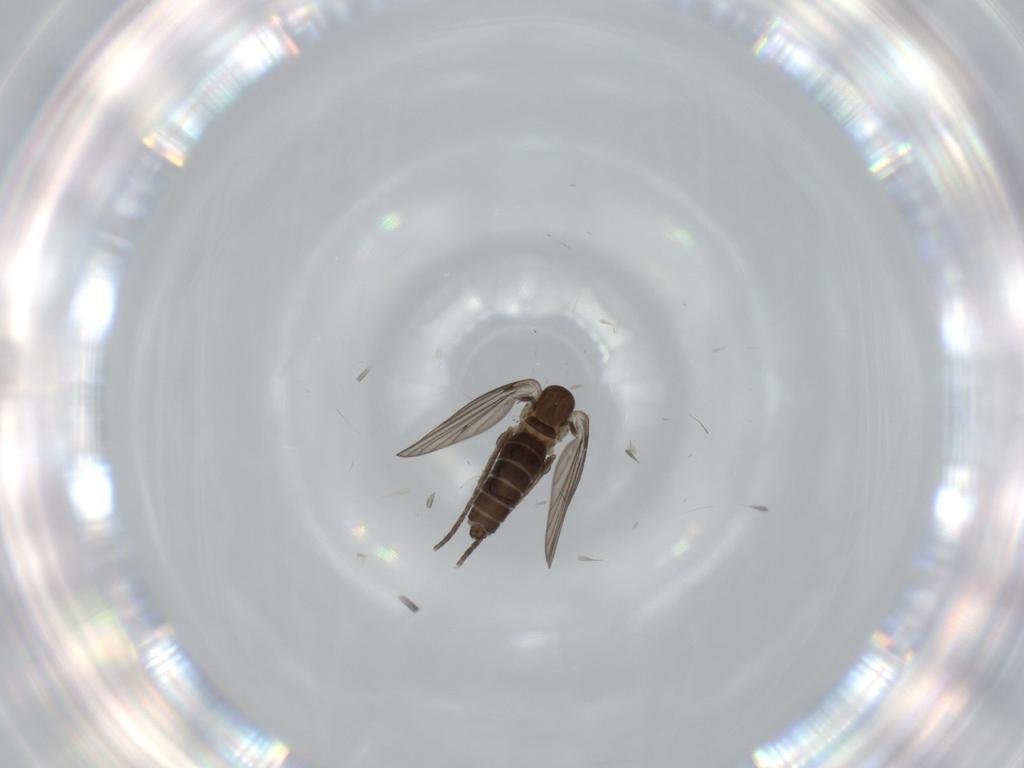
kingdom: Animalia
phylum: Arthropoda
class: Insecta
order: Diptera
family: Psychodidae
